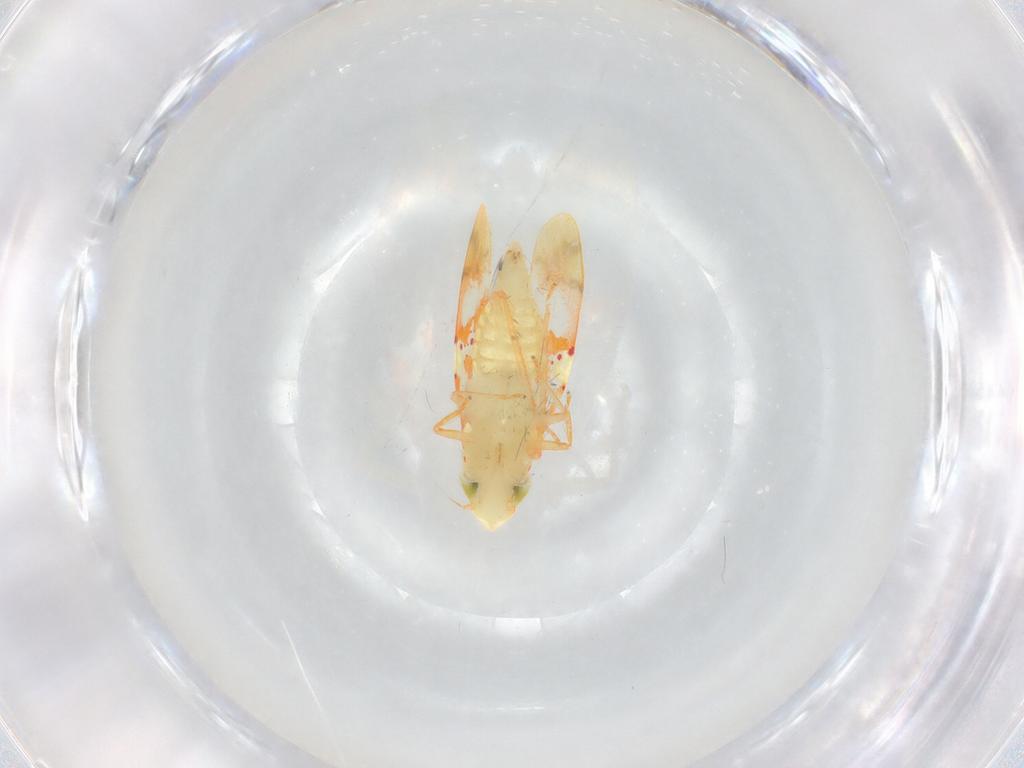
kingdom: Animalia
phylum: Arthropoda
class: Insecta
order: Hemiptera
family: Cicadellidae
